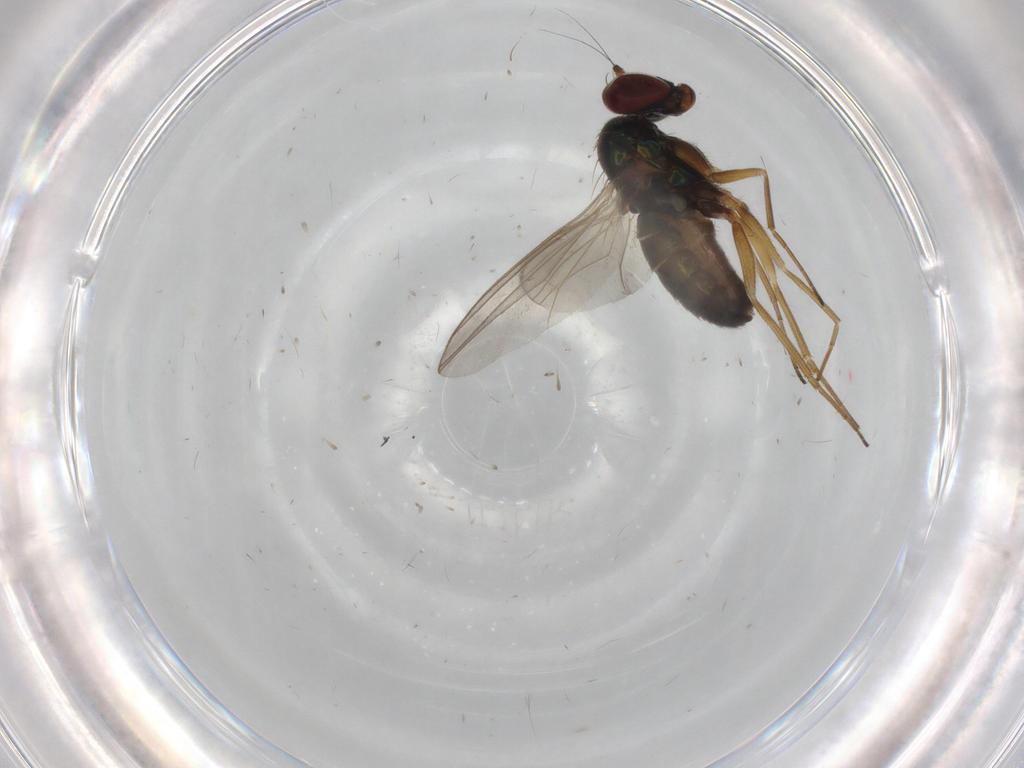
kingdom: Animalia
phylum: Arthropoda
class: Insecta
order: Diptera
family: Dolichopodidae
